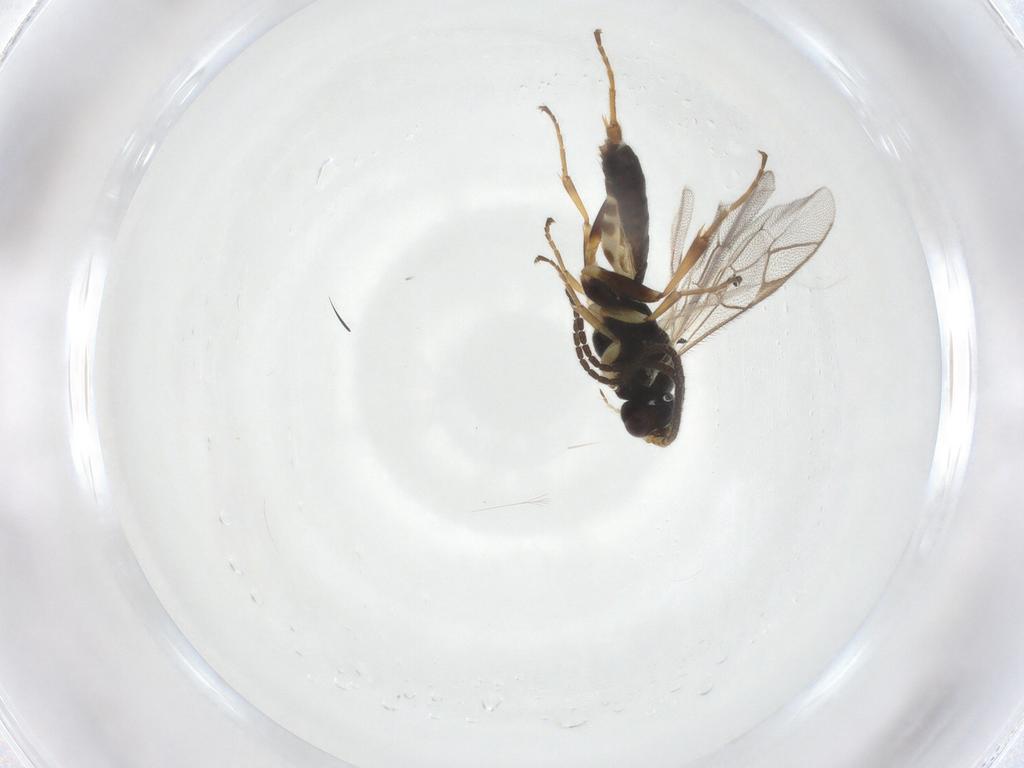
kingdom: Animalia
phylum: Arthropoda
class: Insecta
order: Hymenoptera
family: Ichneumonidae
